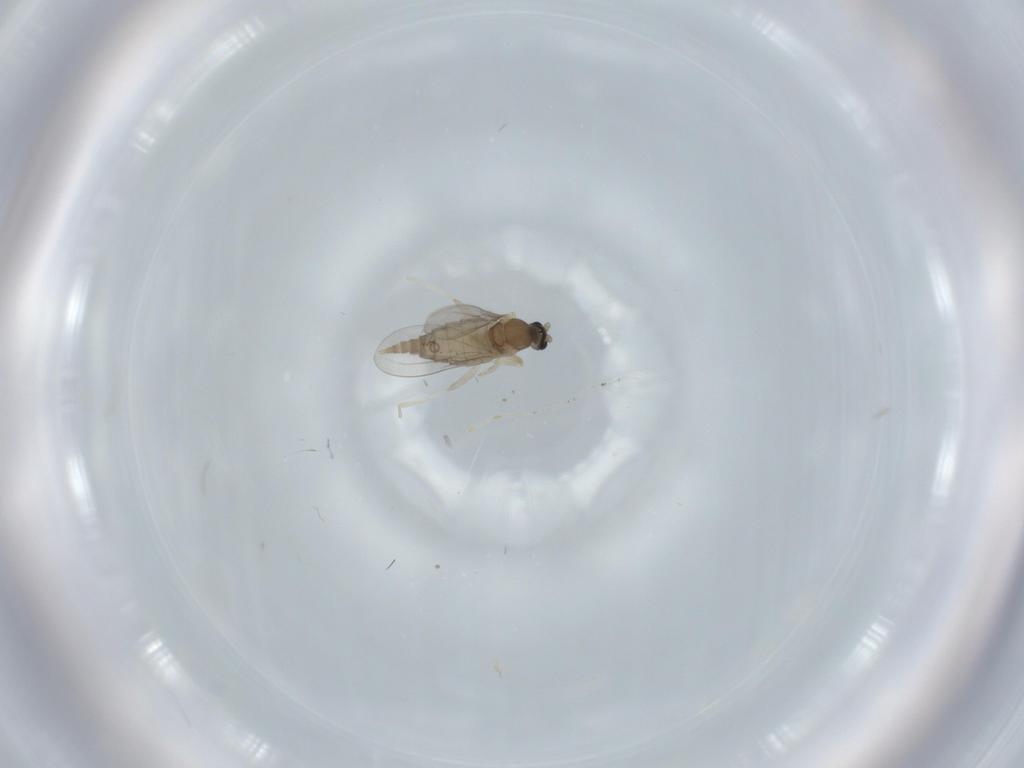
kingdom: Animalia
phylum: Arthropoda
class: Insecta
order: Diptera
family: Cecidomyiidae
